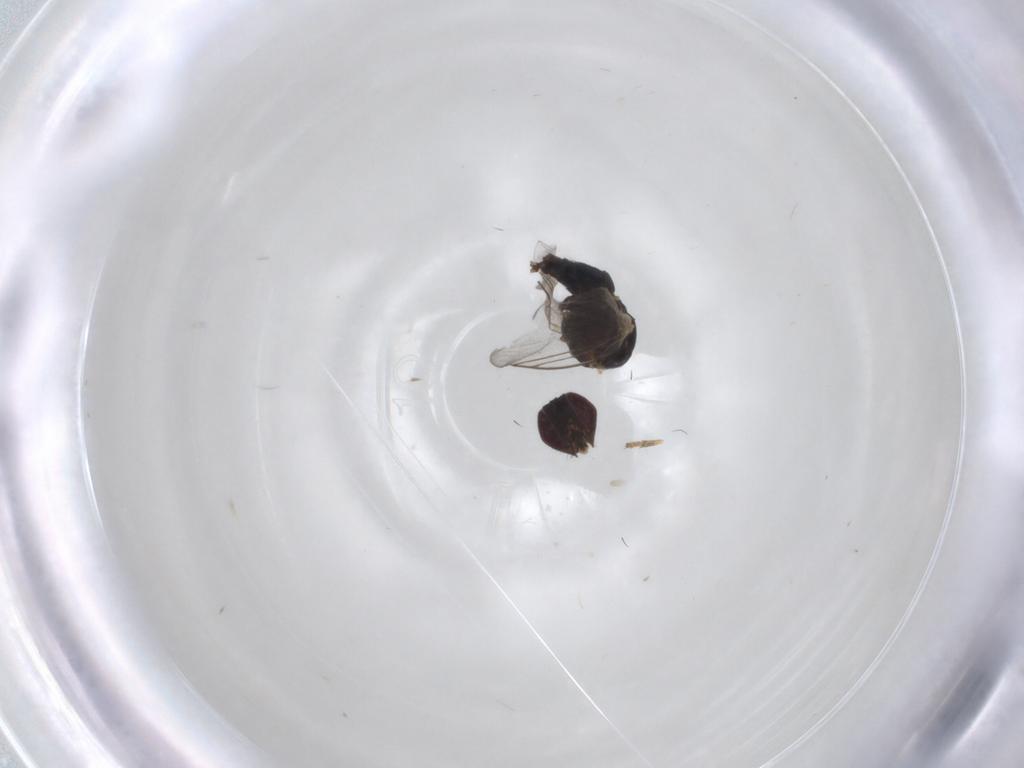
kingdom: Animalia
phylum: Arthropoda
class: Insecta
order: Diptera
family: Agromyzidae
